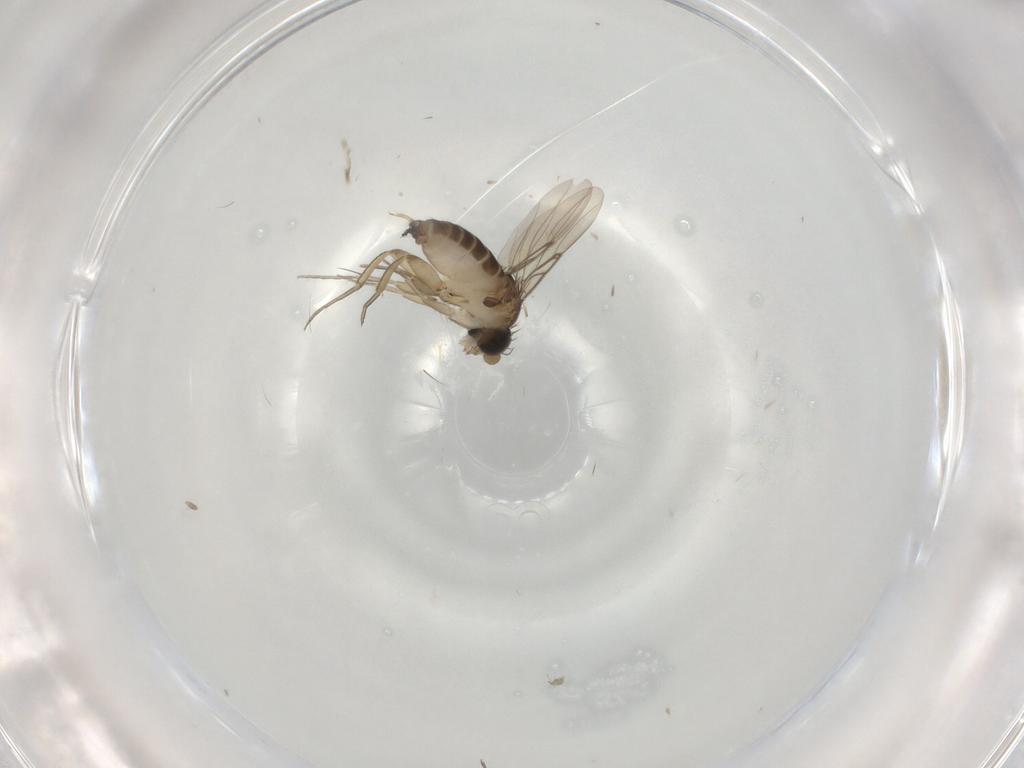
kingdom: Animalia
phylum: Arthropoda
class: Insecta
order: Diptera
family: Phoridae
